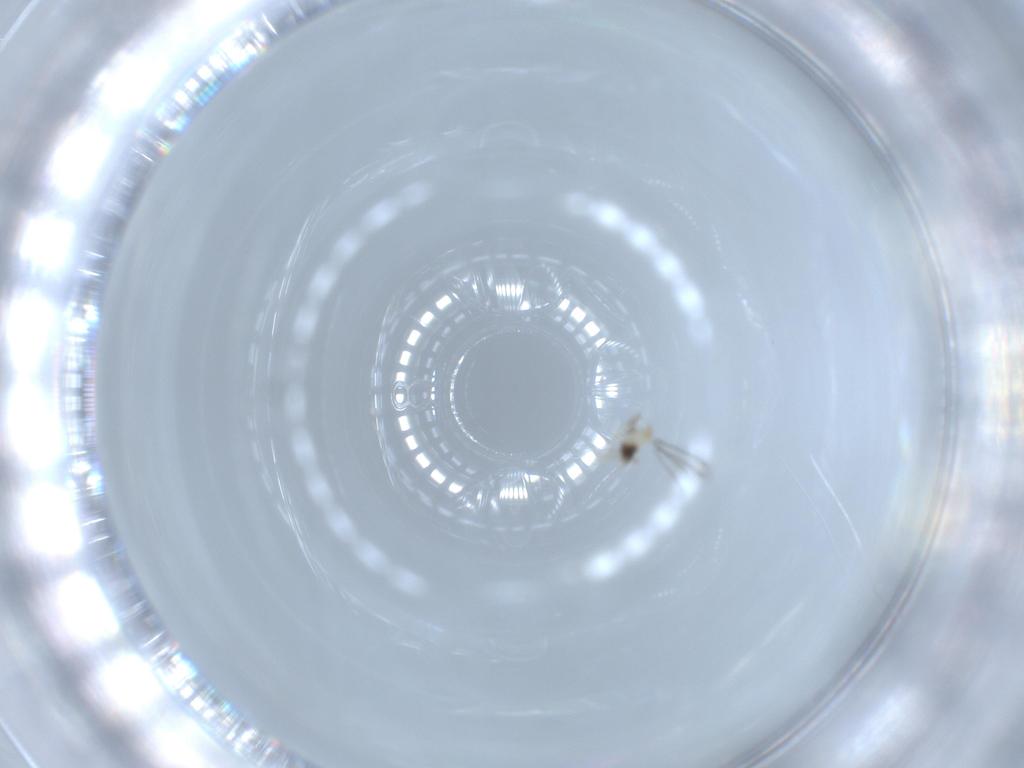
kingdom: Animalia
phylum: Arthropoda
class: Insecta
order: Hymenoptera
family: Mymaridae
